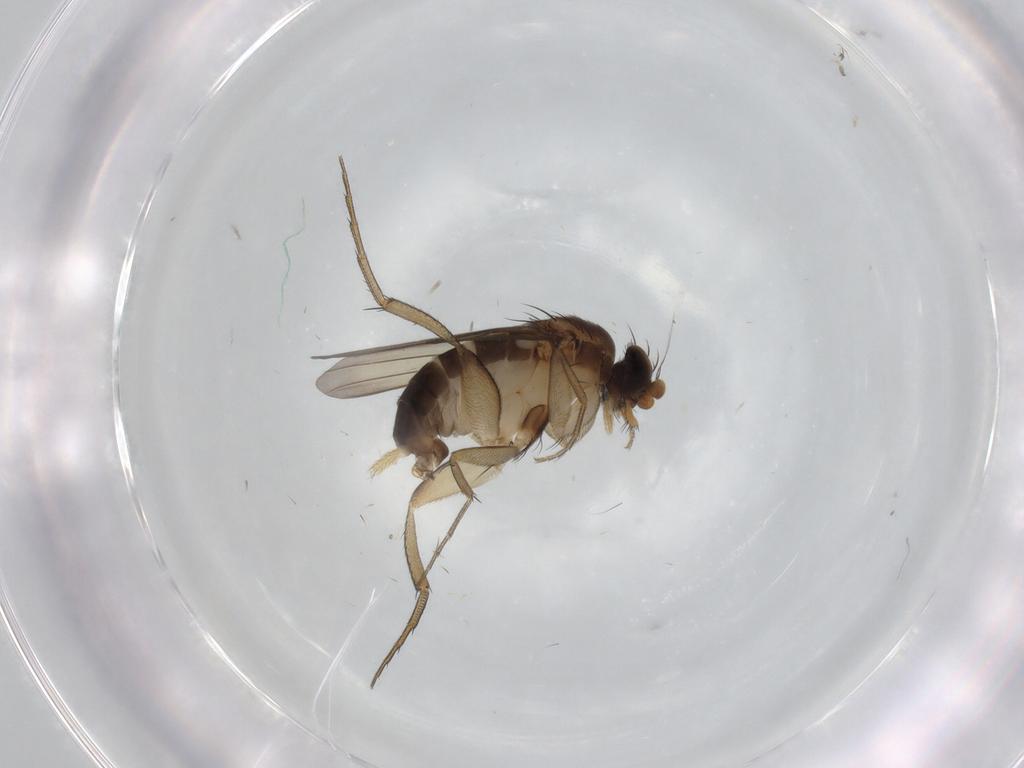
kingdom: Animalia
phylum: Arthropoda
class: Insecta
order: Diptera
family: Phoridae
